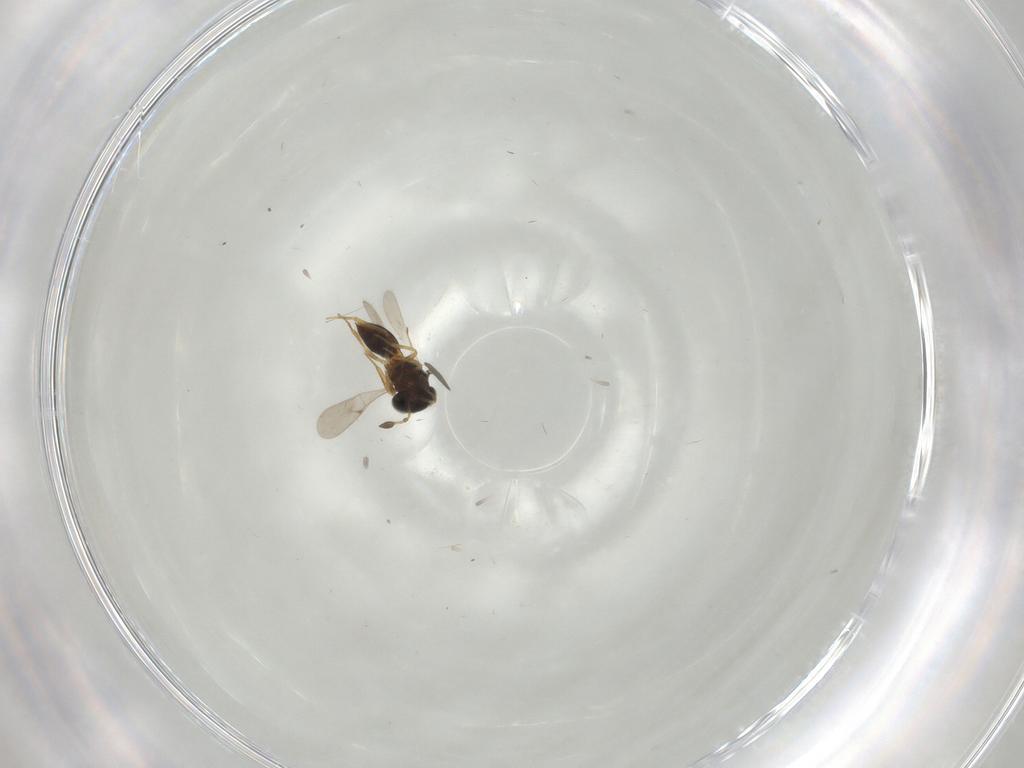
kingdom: Animalia
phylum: Arthropoda
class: Insecta
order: Hymenoptera
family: Scelionidae
